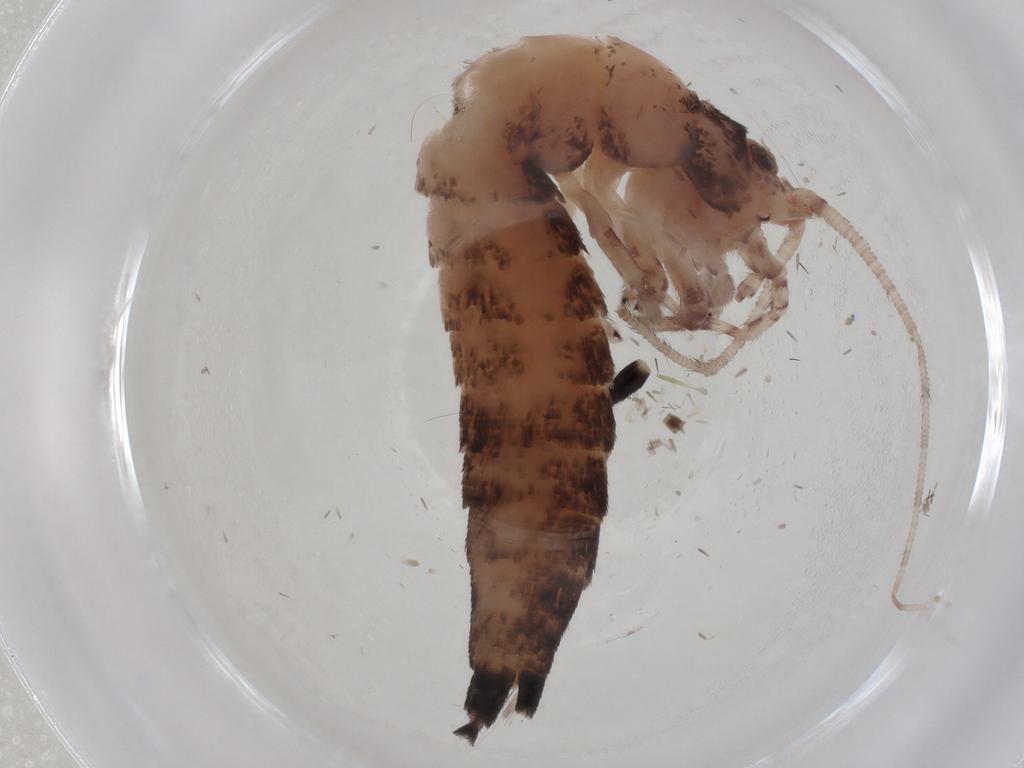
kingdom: Animalia
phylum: Arthropoda
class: Insecta
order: Archaeognatha
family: Machilidae
